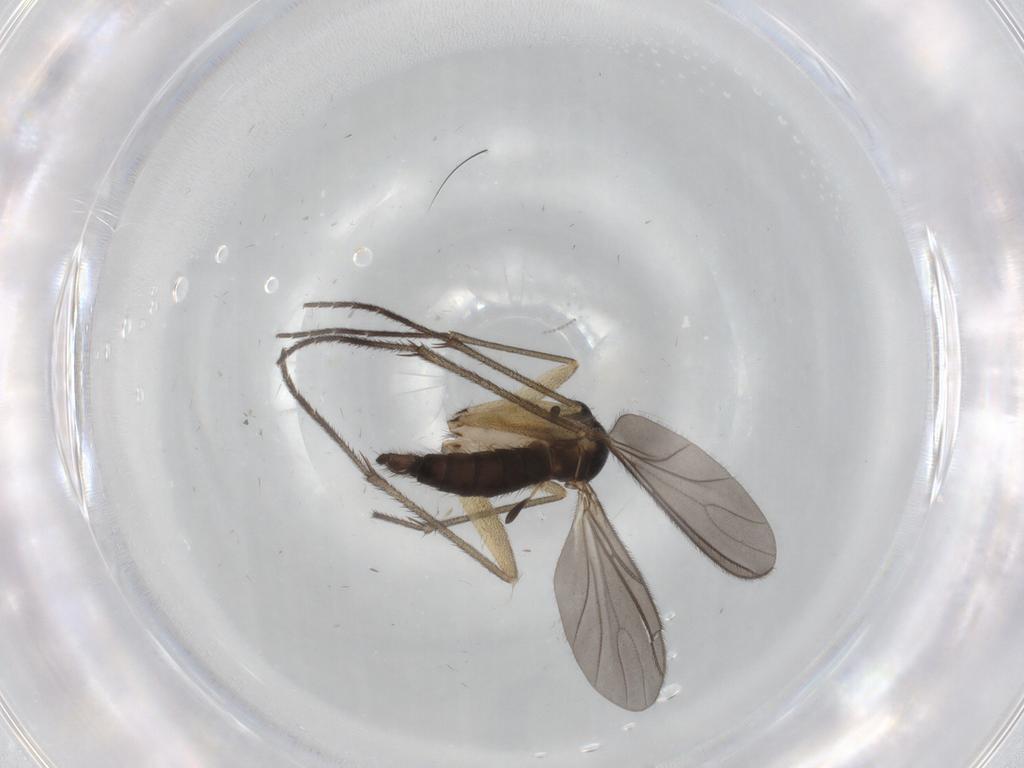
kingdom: Animalia
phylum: Arthropoda
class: Insecta
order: Diptera
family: Sciaridae
